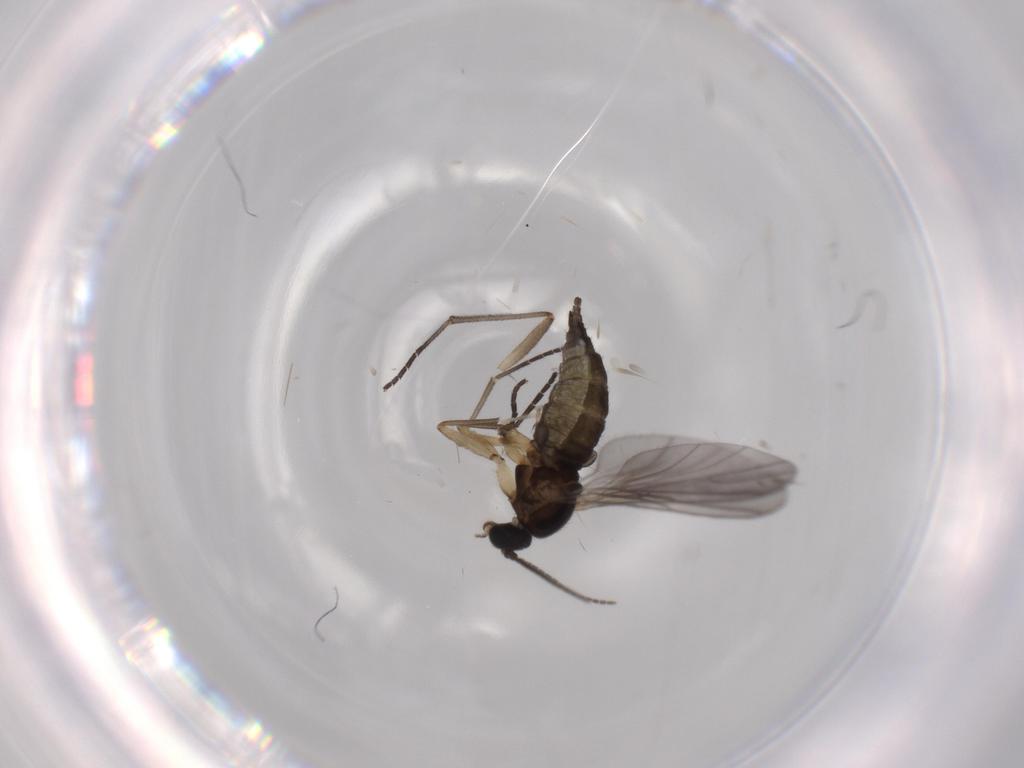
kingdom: Animalia
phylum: Arthropoda
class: Insecta
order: Diptera
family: Sciaridae
